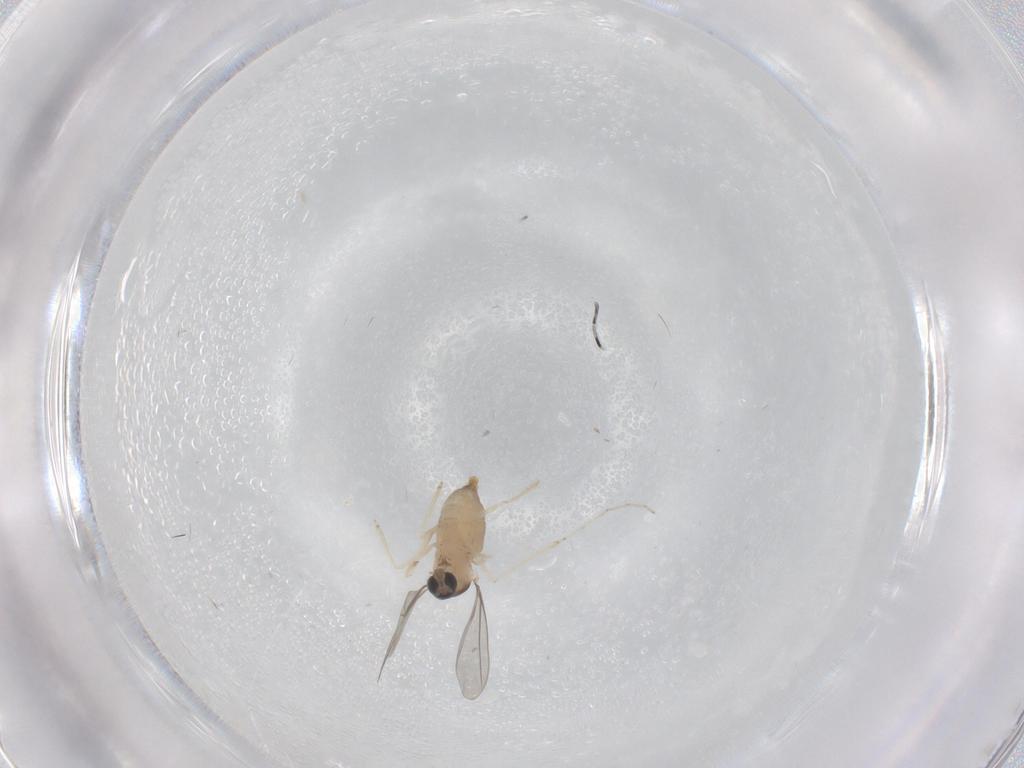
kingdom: Animalia
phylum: Arthropoda
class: Insecta
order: Diptera
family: Cecidomyiidae
